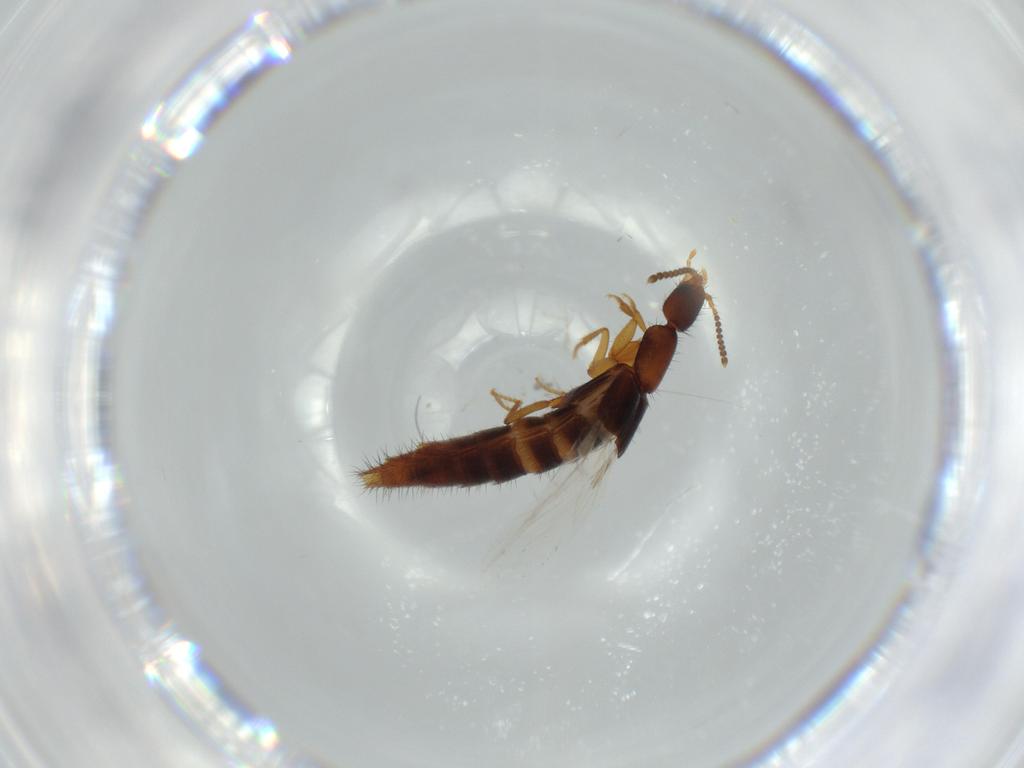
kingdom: Animalia
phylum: Arthropoda
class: Insecta
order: Coleoptera
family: Staphylinidae
